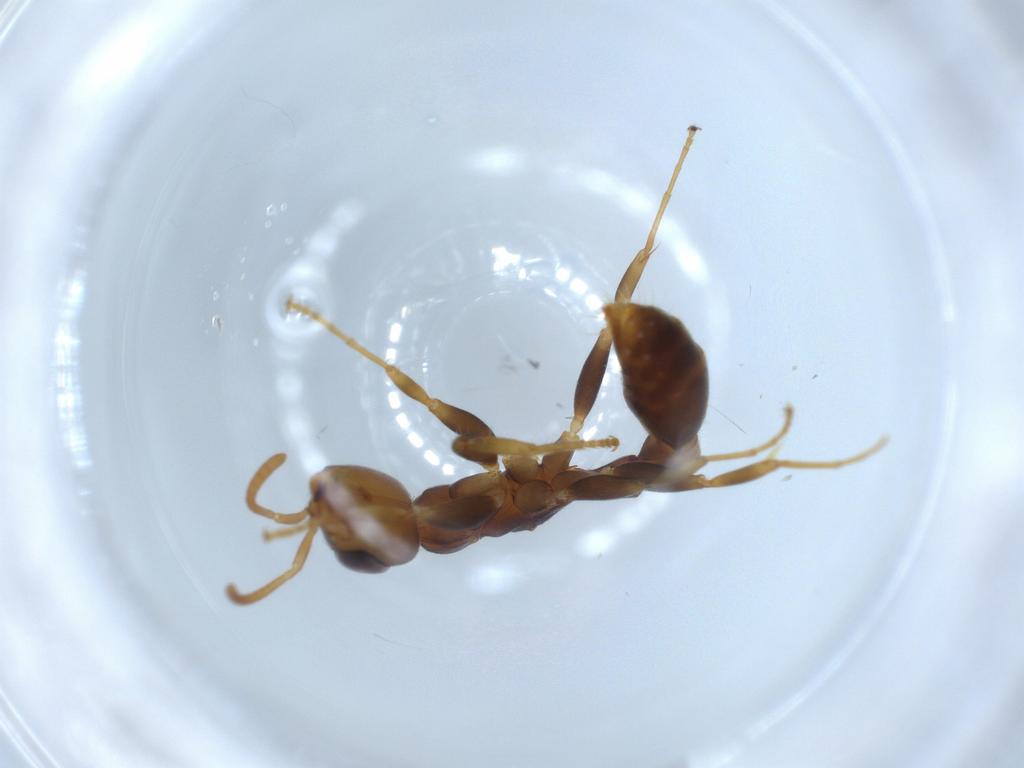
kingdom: Animalia
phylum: Arthropoda
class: Insecta
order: Hymenoptera
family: Formicidae
